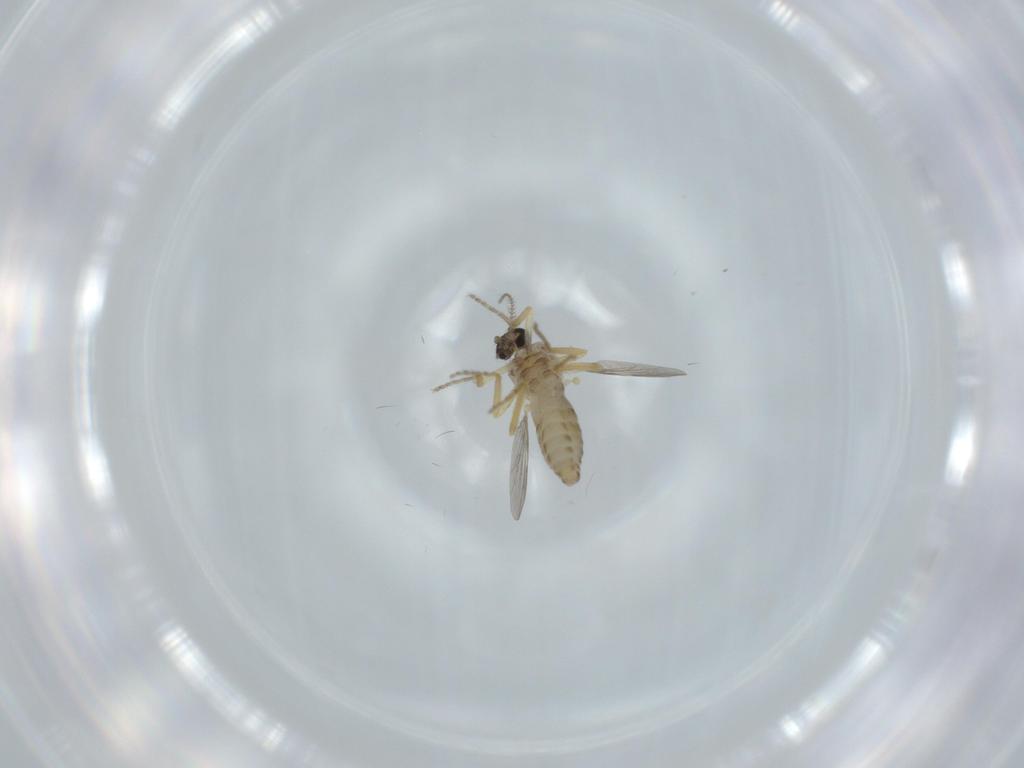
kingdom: Animalia
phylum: Arthropoda
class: Insecta
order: Diptera
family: Ceratopogonidae
